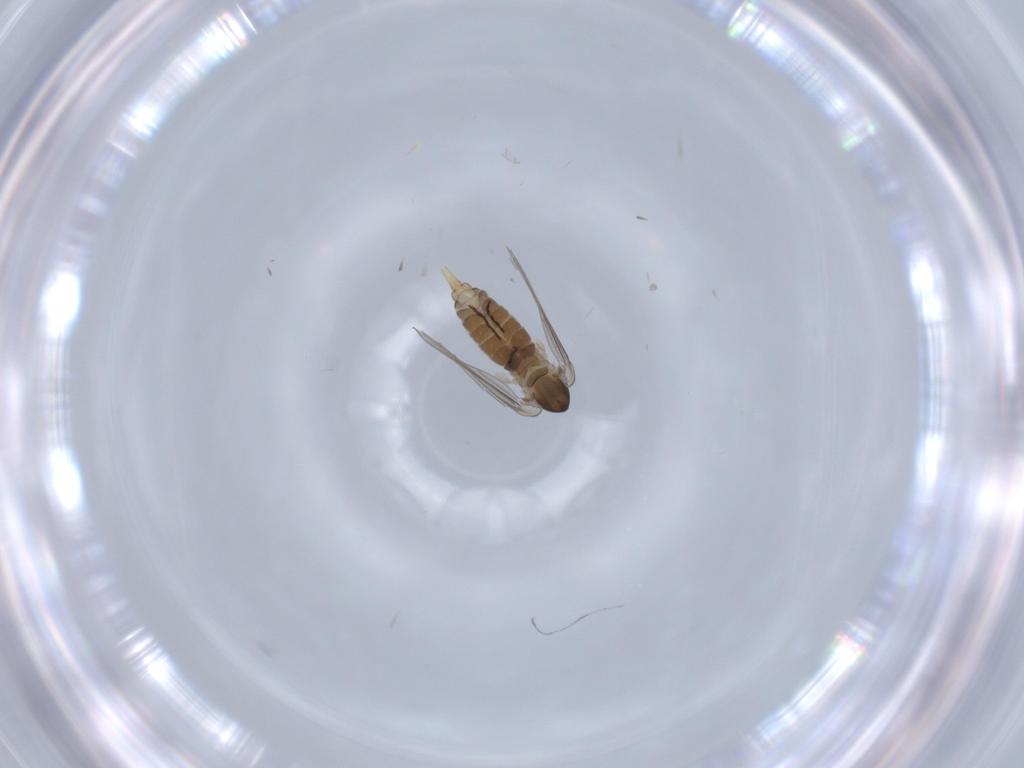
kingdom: Animalia
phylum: Arthropoda
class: Insecta
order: Diptera
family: Psychodidae
